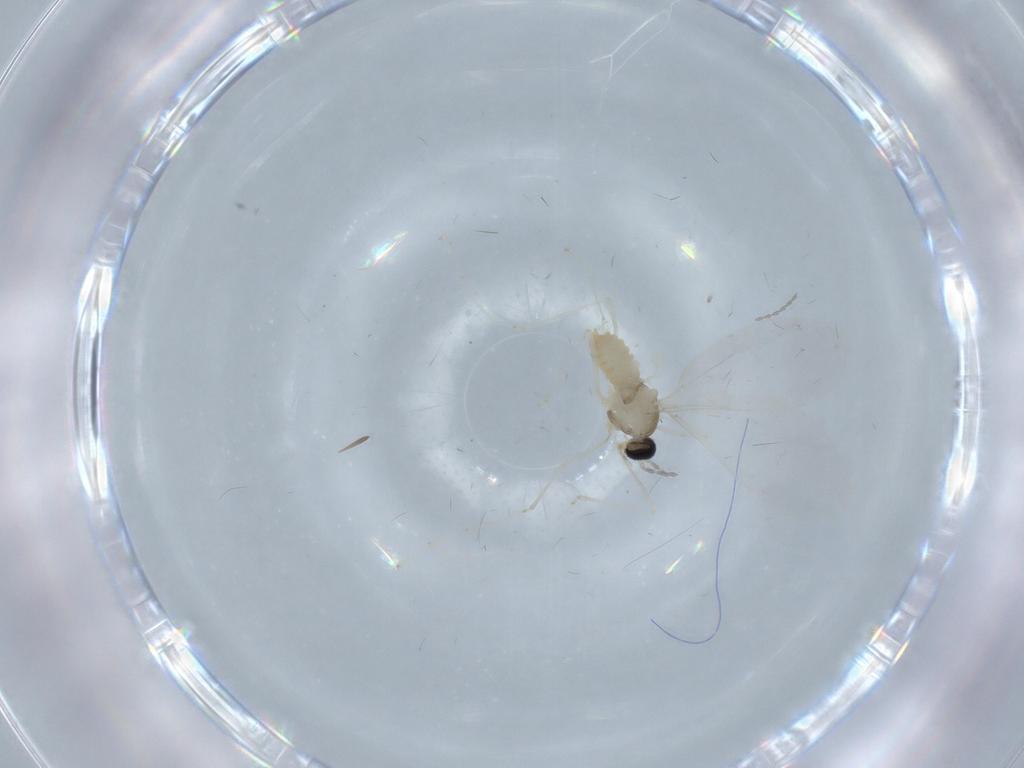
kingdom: Animalia
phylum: Arthropoda
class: Insecta
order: Diptera
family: Cecidomyiidae
